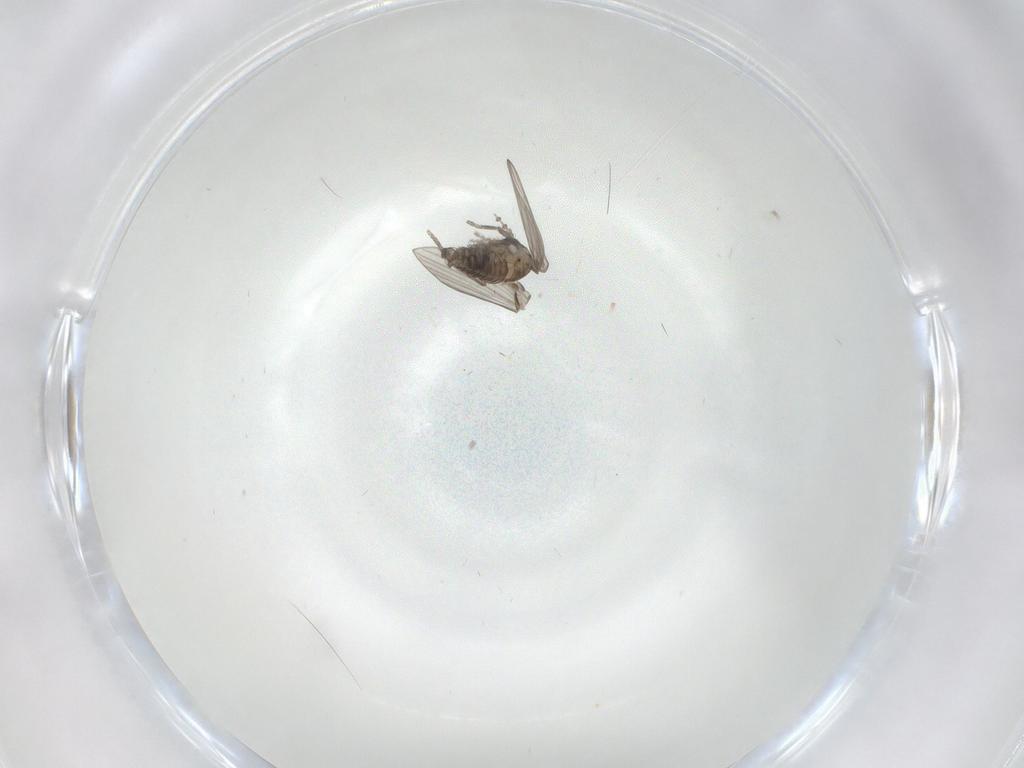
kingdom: Animalia
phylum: Arthropoda
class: Insecta
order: Diptera
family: Psychodidae
